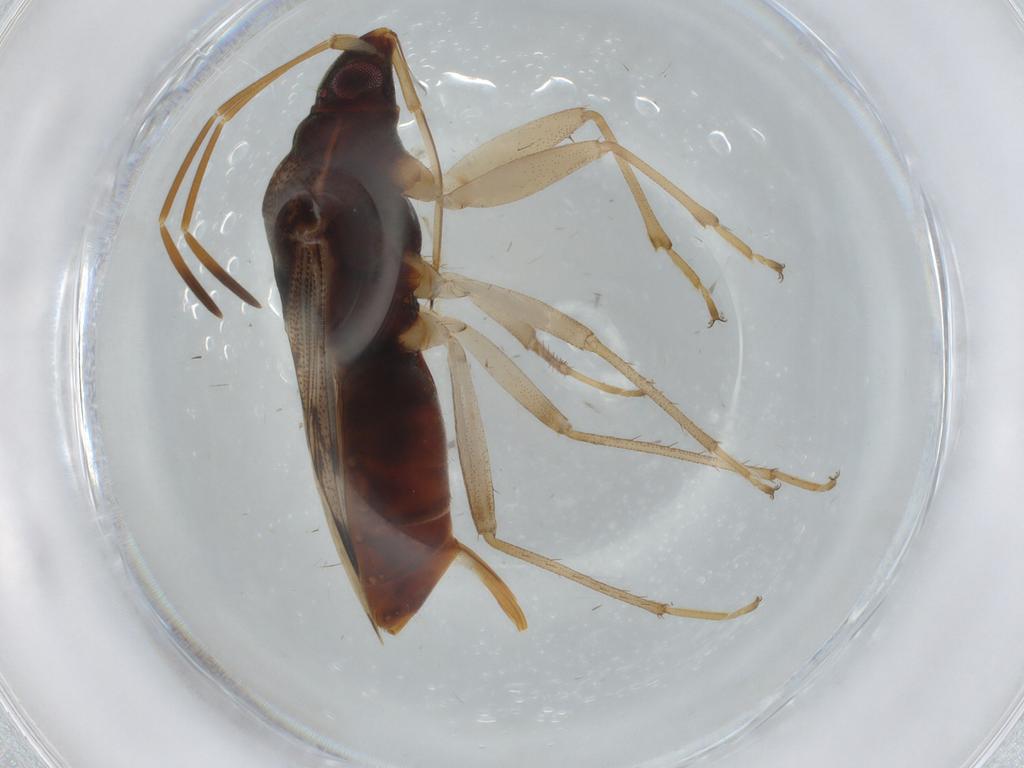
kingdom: Animalia
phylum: Arthropoda
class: Insecta
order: Hemiptera
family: Rhyparochromidae
